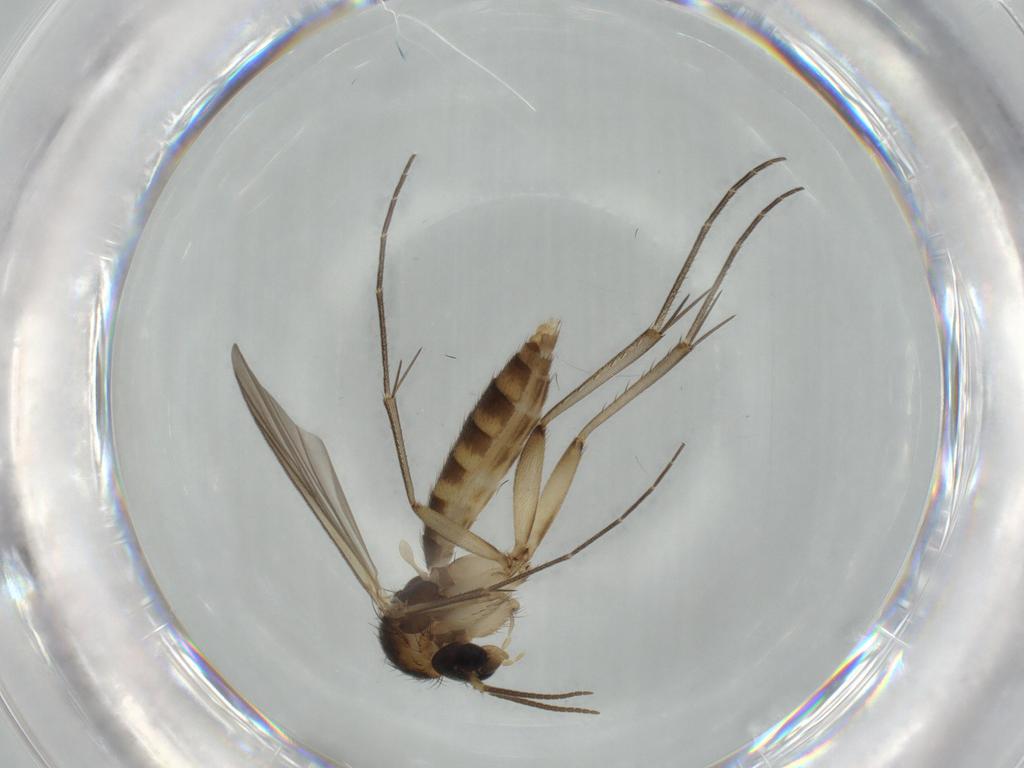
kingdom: Animalia
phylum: Arthropoda
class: Insecta
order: Diptera
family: Mycetophilidae
